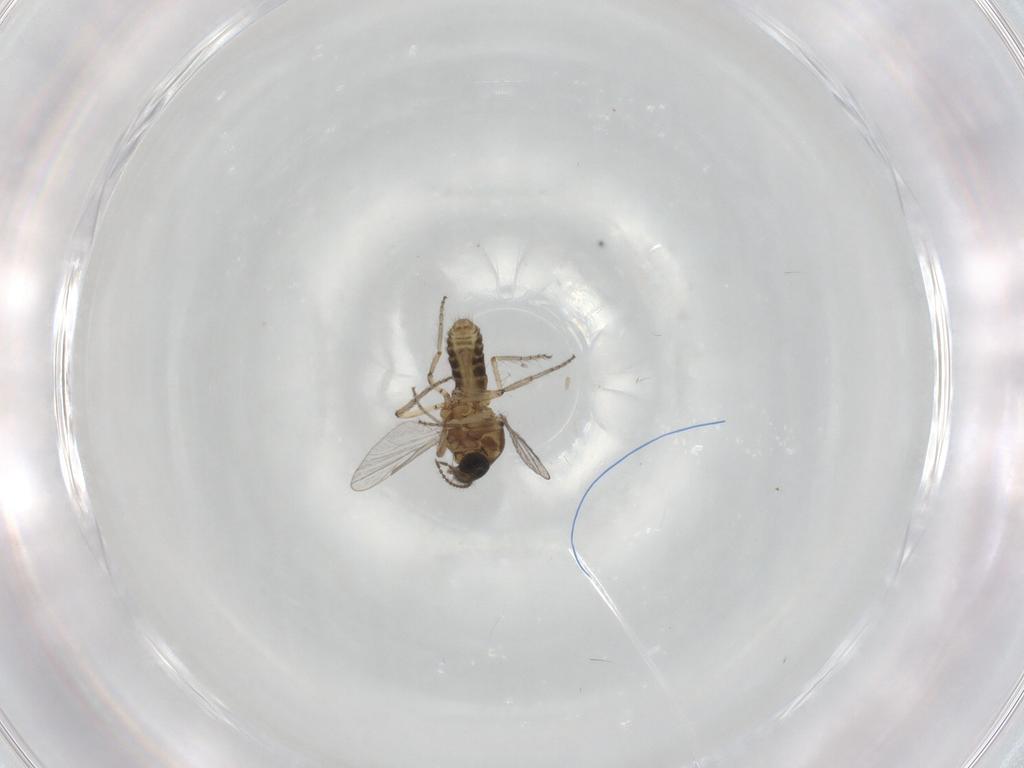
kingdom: Animalia
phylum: Arthropoda
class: Insecta
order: Diptera
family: Ceratopogonidae
